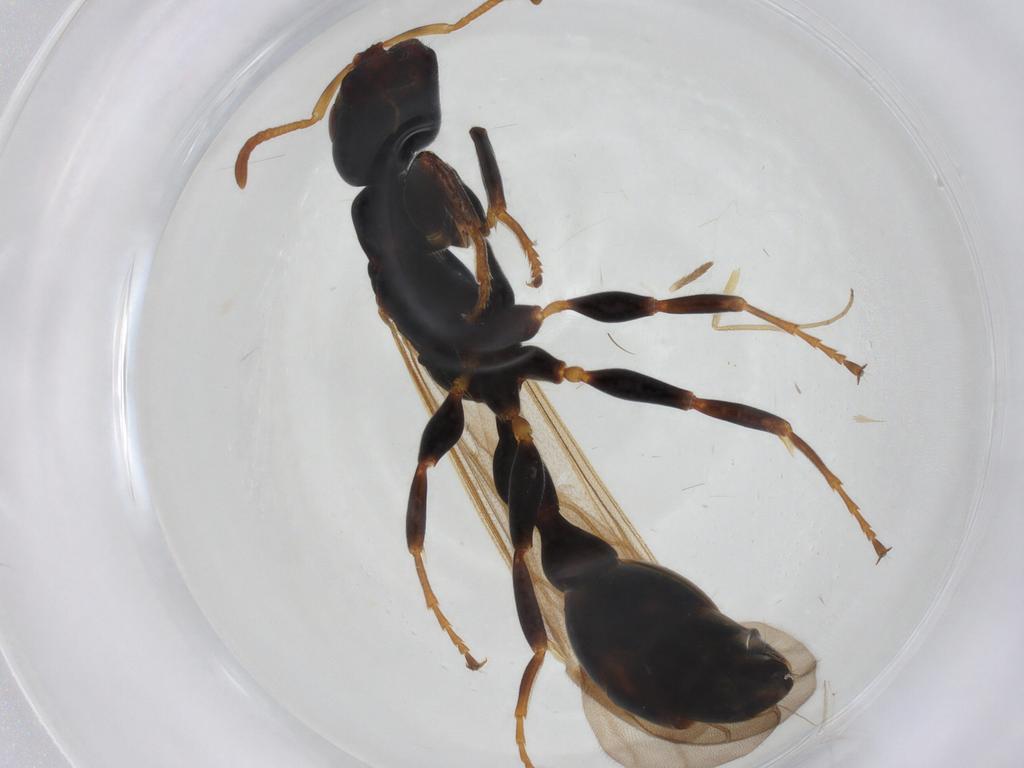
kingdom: Animalia
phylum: Arthropoda
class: Insecta
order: Hymenoptera
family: Formicidae
